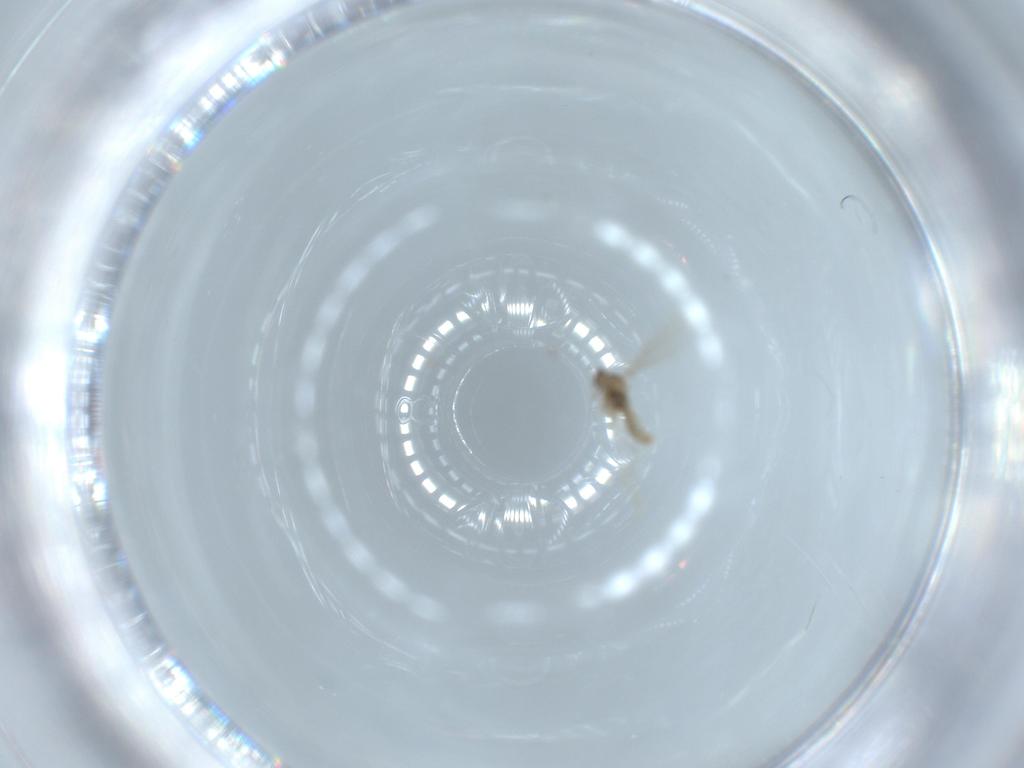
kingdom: Animalia
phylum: Arthropoda
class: Insecta
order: Diptera
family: Cecidomyiidae
